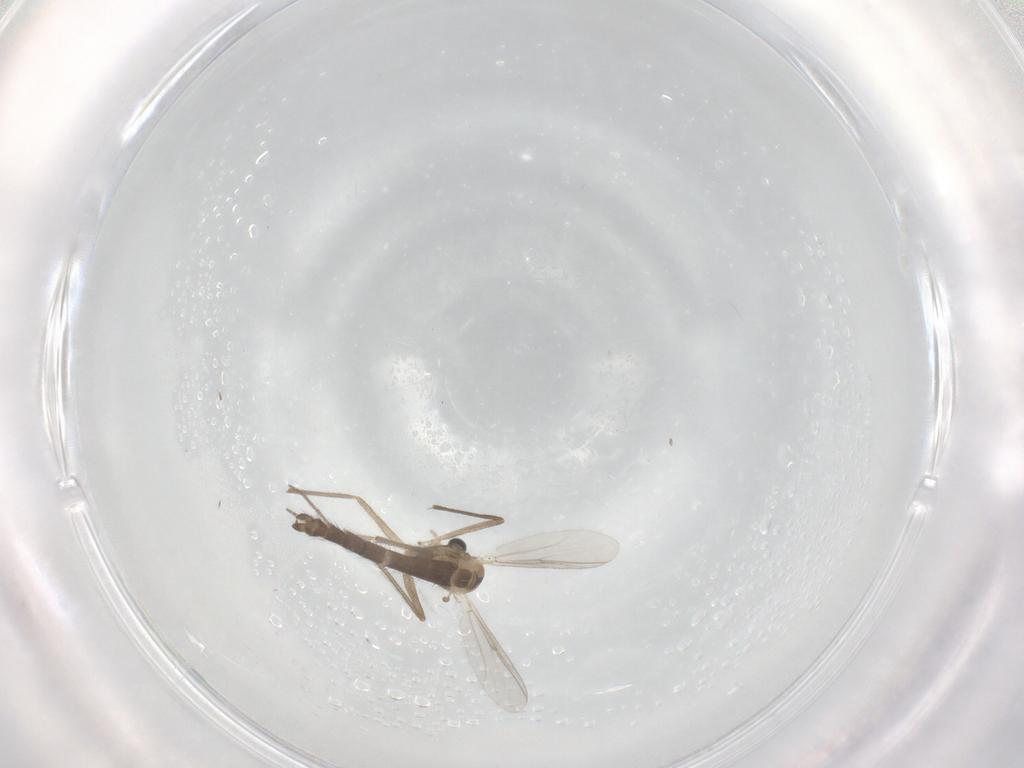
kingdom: Animalia
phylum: Arthropoda
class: Insecta
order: Diptera
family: Chironomidae
